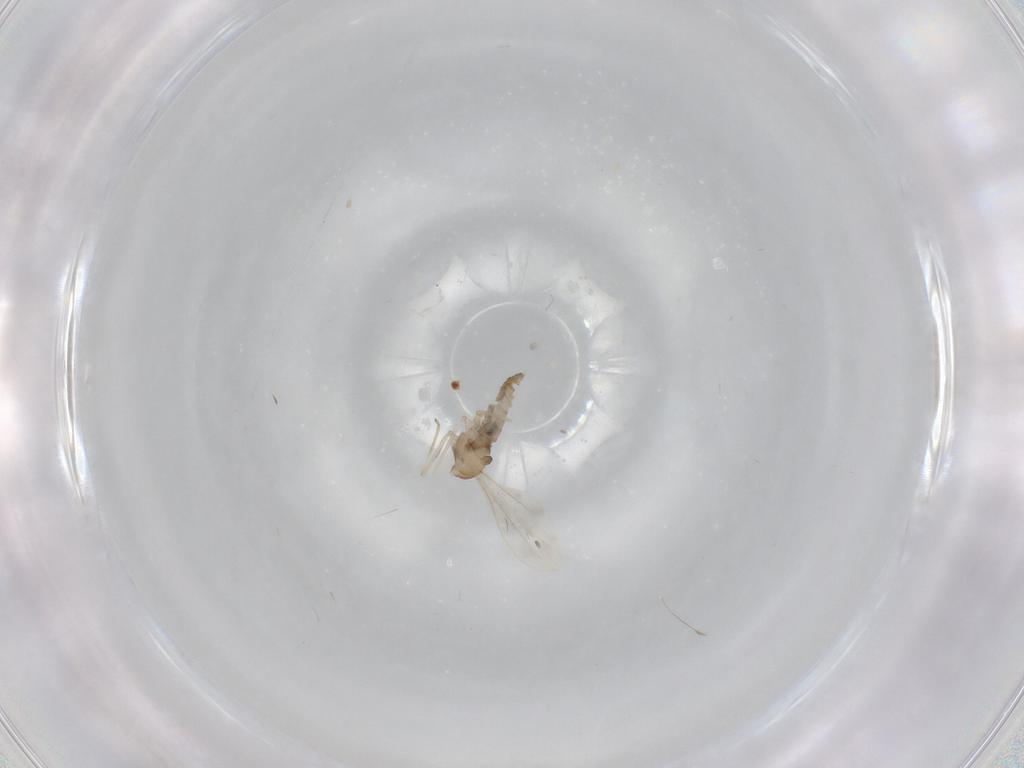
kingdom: Animalia
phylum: Arthropoda
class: Insecta
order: Diptera
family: Cecidomyiidae
